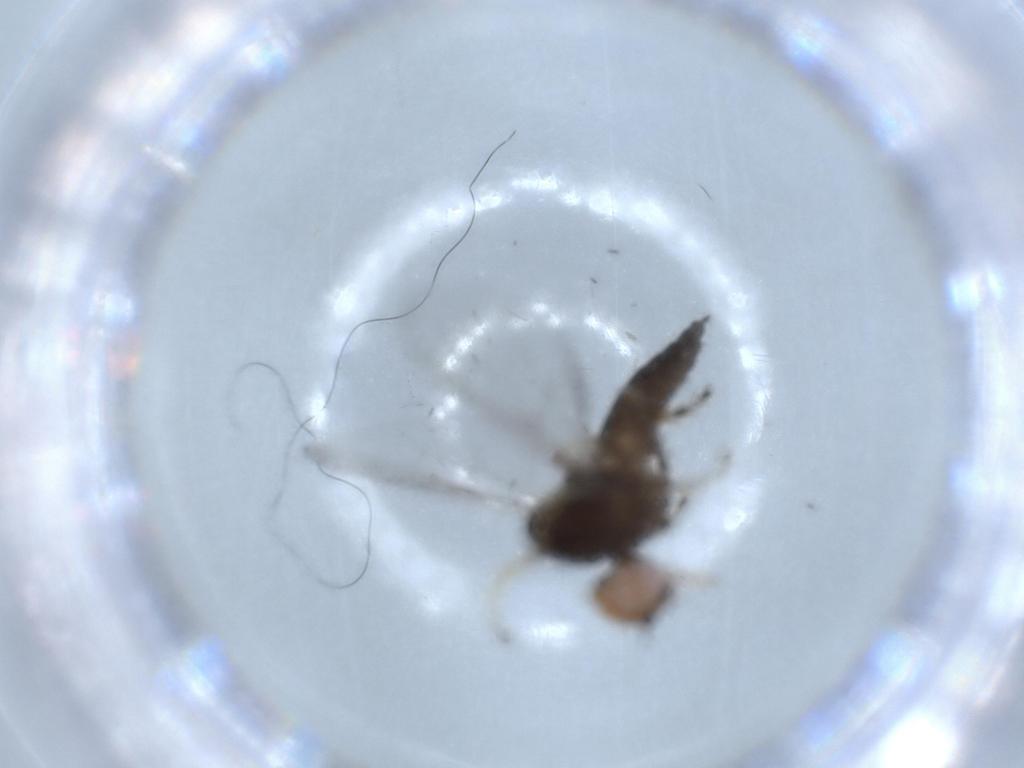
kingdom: Animalia
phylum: Arthropoda
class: Insecta
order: Diptera
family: Hybotidae
